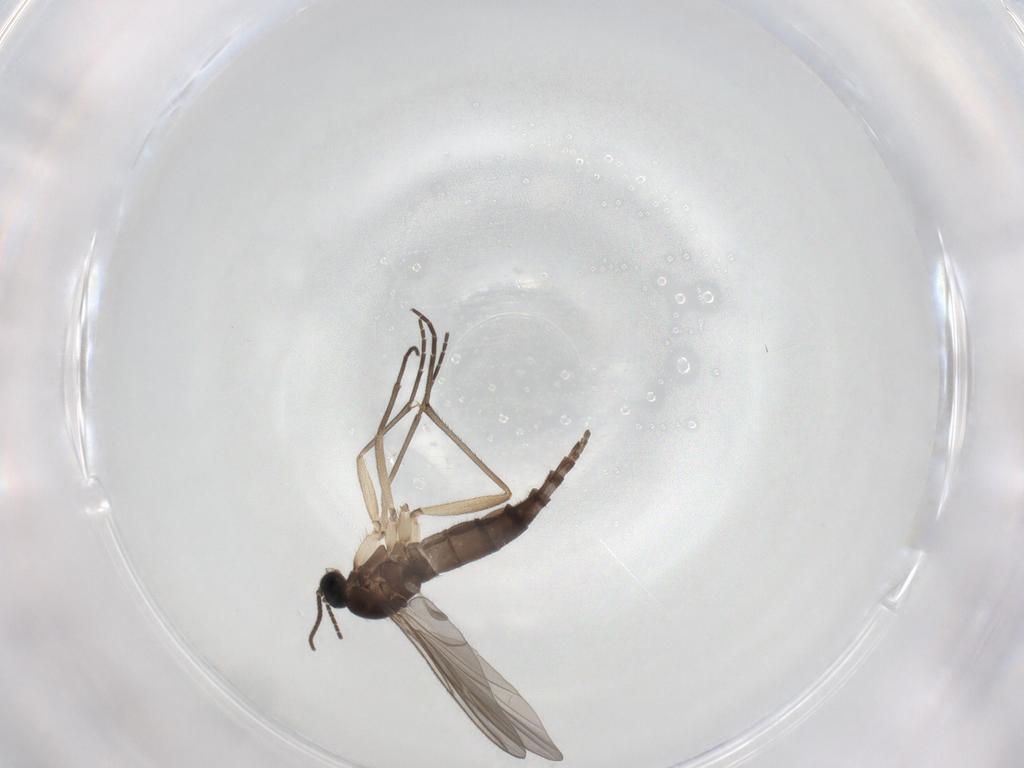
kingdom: Animalia
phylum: Arthropoda
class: Insecta
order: Diptera
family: Sciaridae
